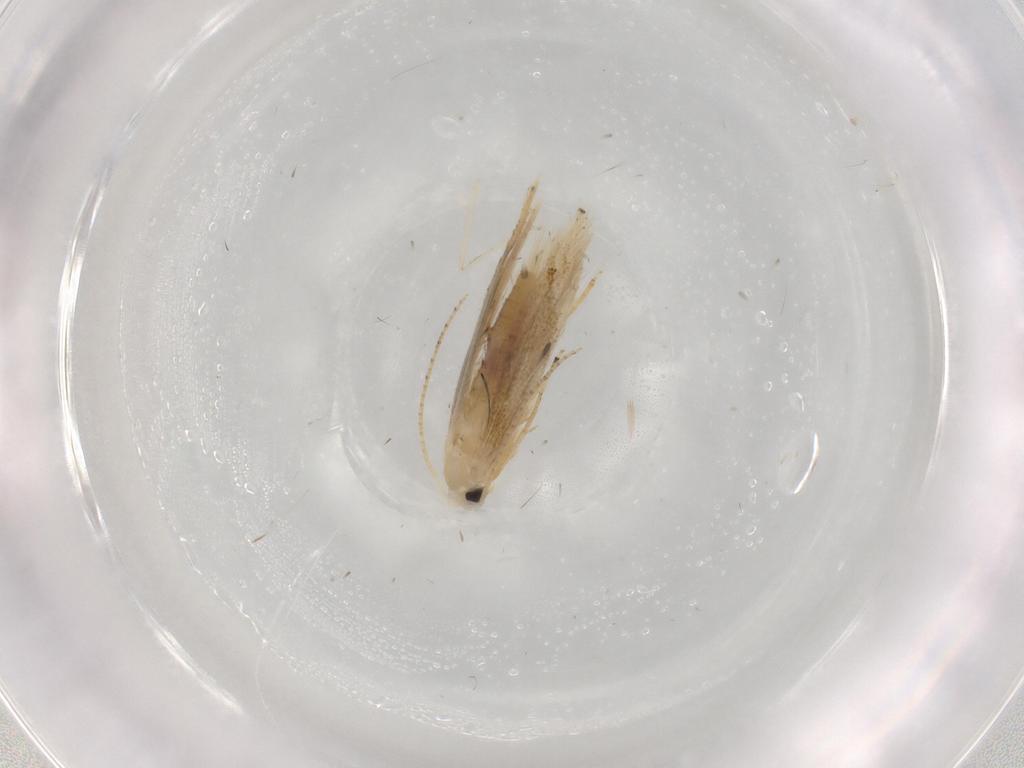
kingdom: Animalia
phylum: Arthropoda
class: Insecta
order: Lepidoptera
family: Bucculatricidae
